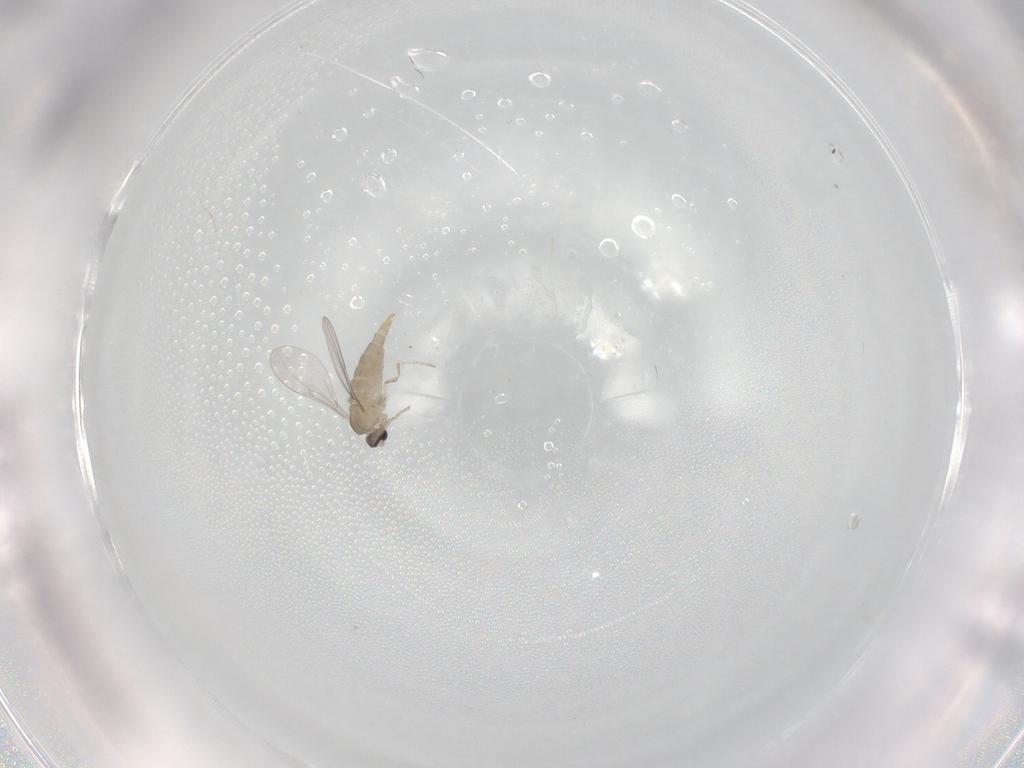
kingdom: Animalia
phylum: Arthropoda
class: Insecta
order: Diptera
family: Cecidomyiidae
